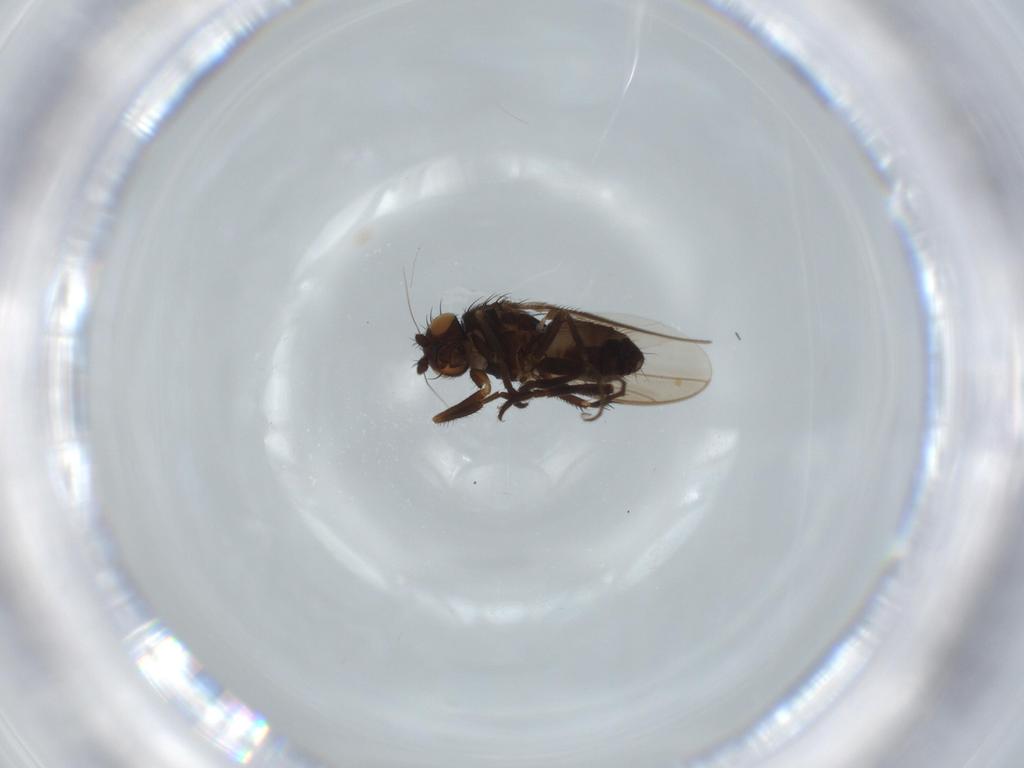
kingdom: Animalia
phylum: Arthropoda
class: Insecta
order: Diptera
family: Sphaeroceridae
